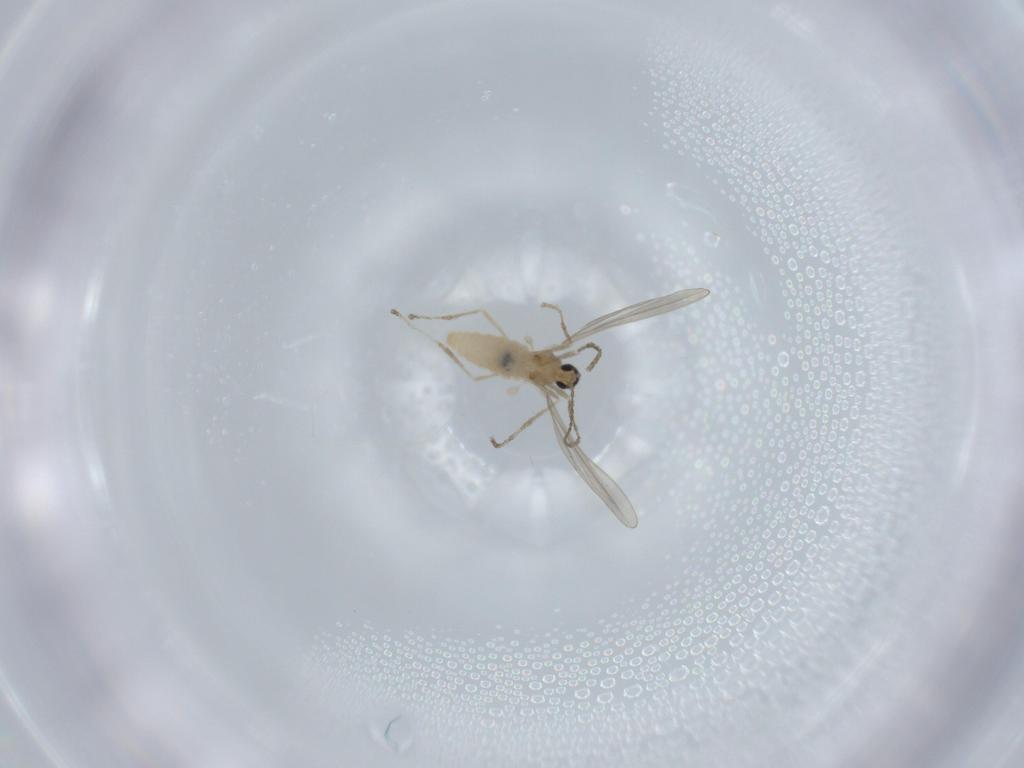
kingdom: Animalia
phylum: Arthropoda
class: Insecta
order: Diptera
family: Cecidomyiidae
